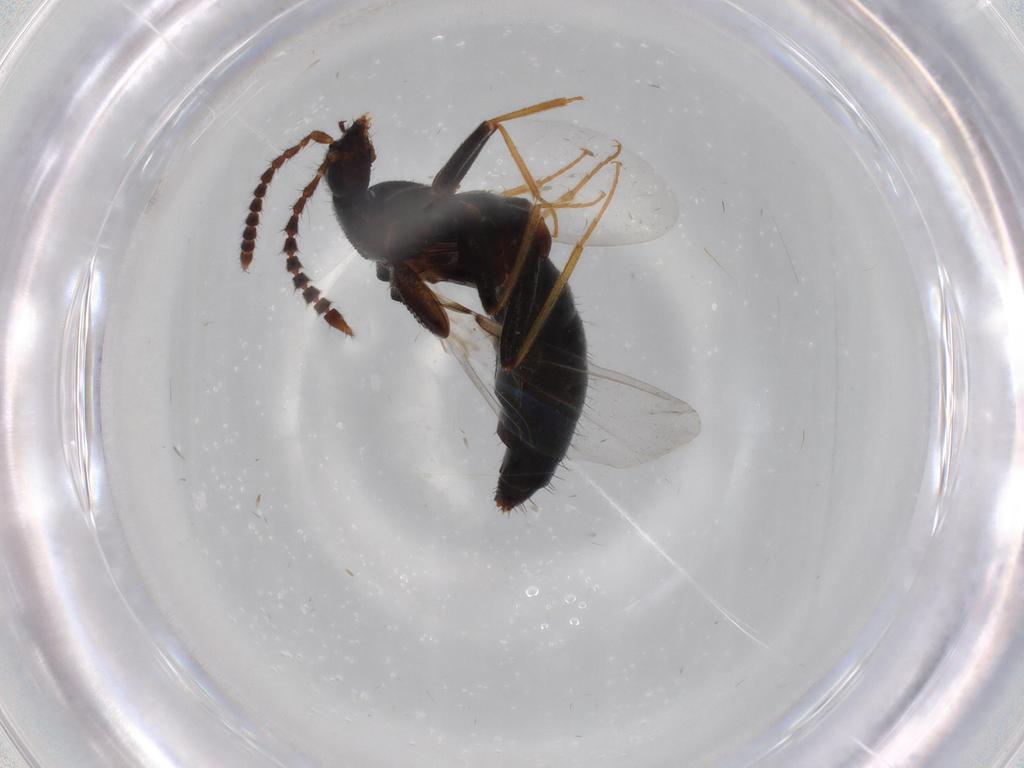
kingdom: Animalia
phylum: Arthropoda
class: Insecta
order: Coleoptera
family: Staphylinidae
